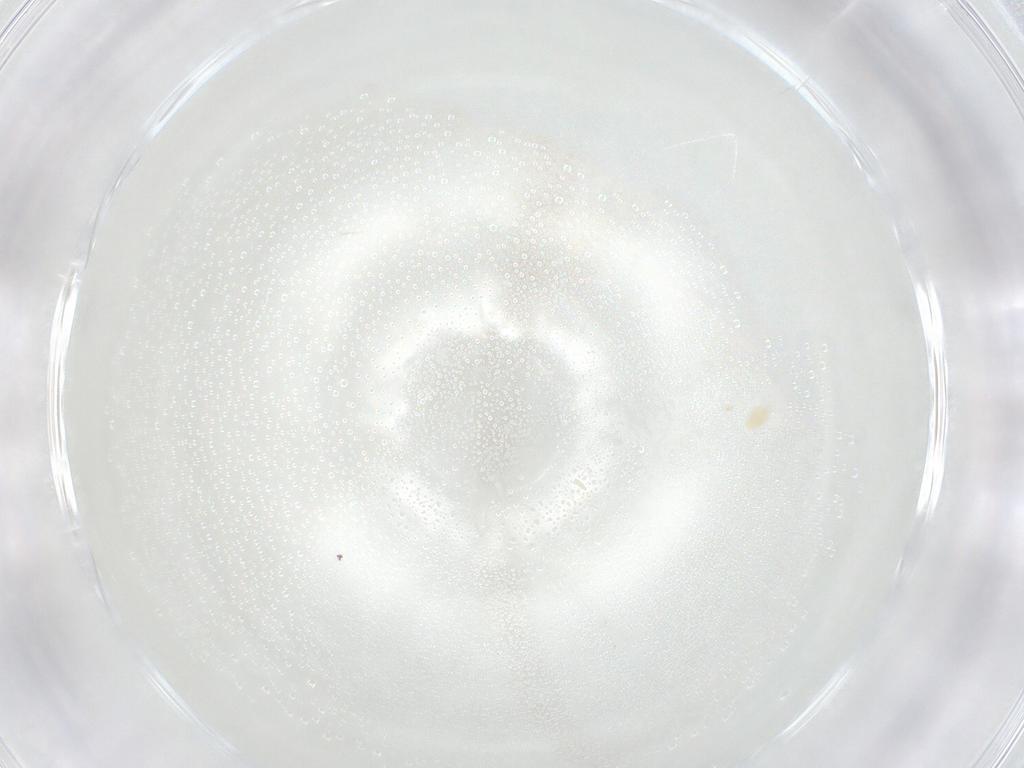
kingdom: Animalia
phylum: Arthropoda
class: Arachnida
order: Trombidiformes
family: Eupodidae
